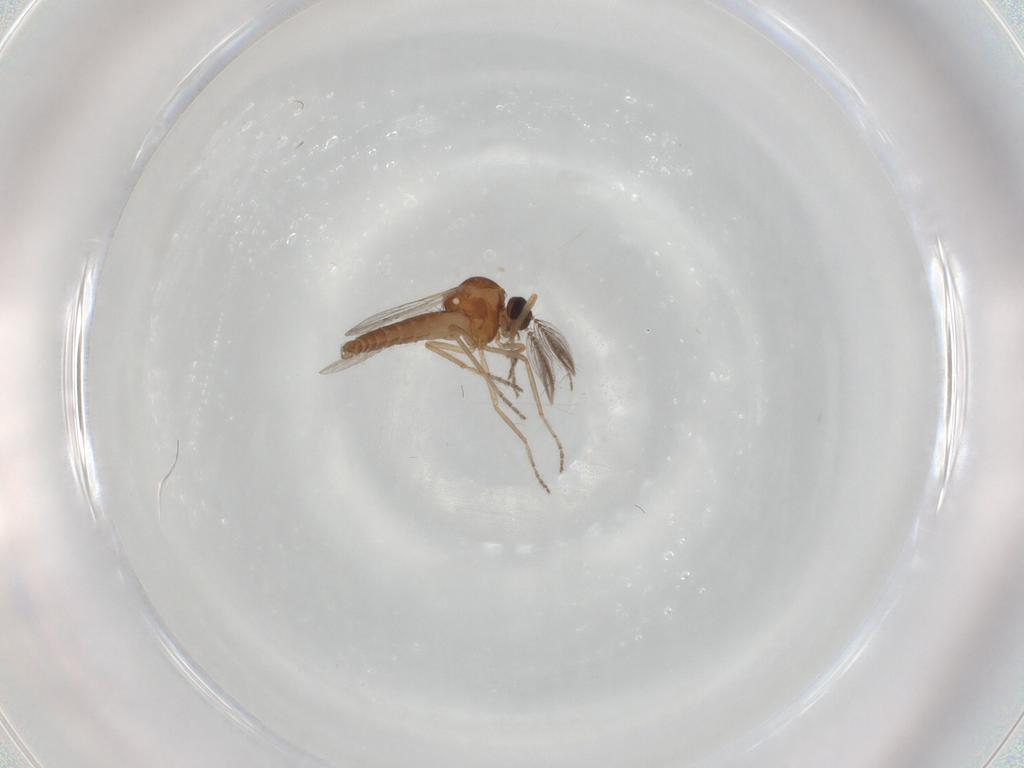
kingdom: Animalia
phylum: Arthropoda
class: Insecta
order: Diptera
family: Ceratopogonidae
